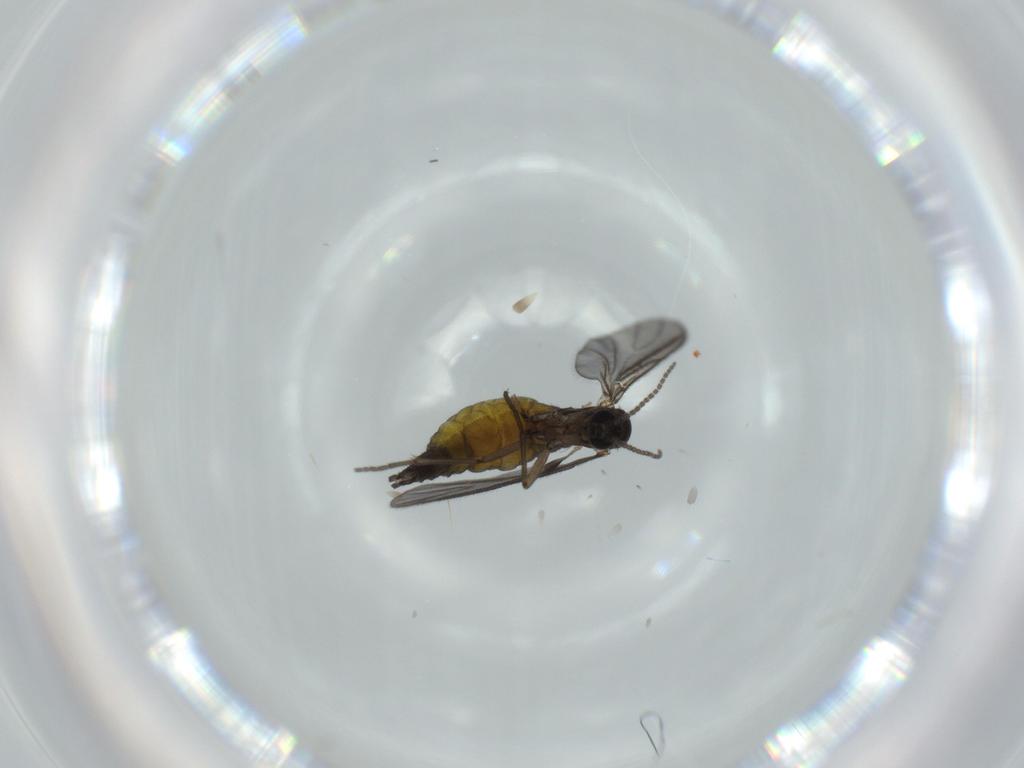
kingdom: Animalia
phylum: Arthropoda
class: Insecta
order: Diptera
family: Sciaridae
